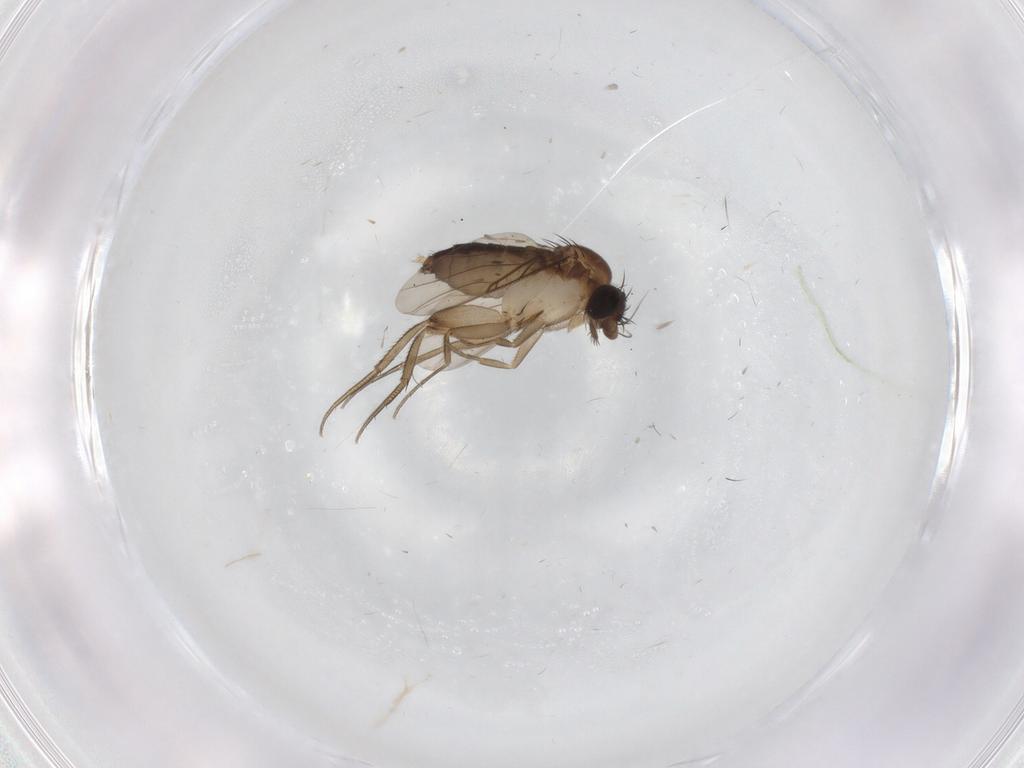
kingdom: Animalia
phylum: Arthropoda
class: Insecta
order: Diptera
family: Phoridae
